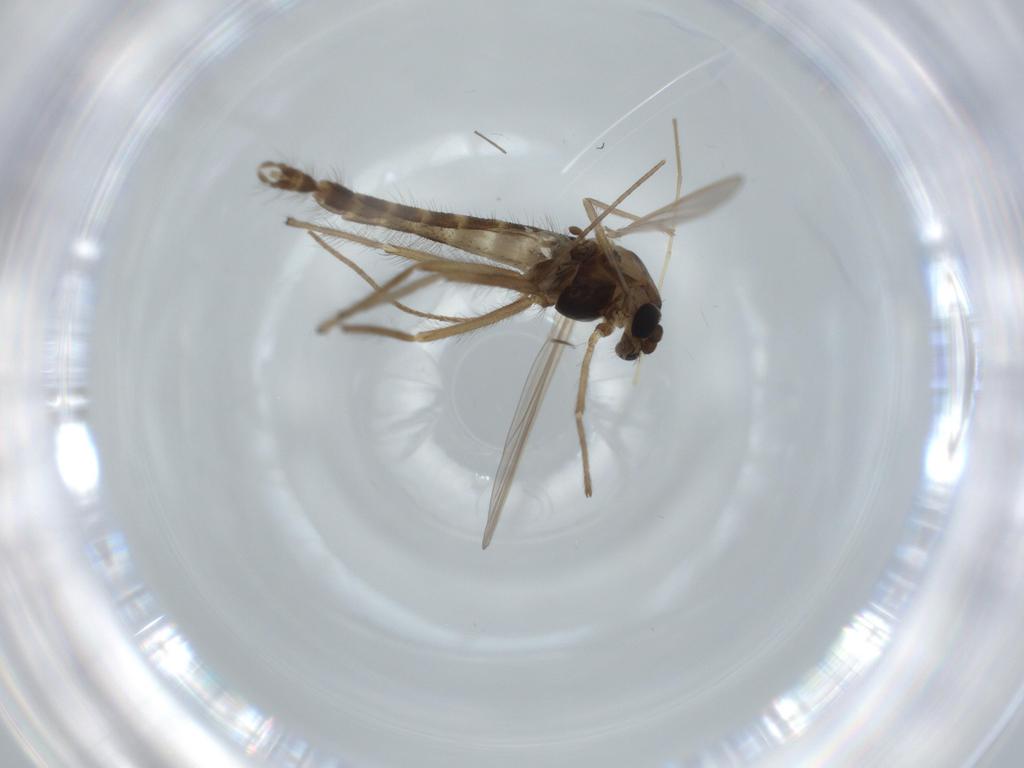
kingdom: Animalia
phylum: Arthropoda
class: Insecta
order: Diptera
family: Chironomidae
